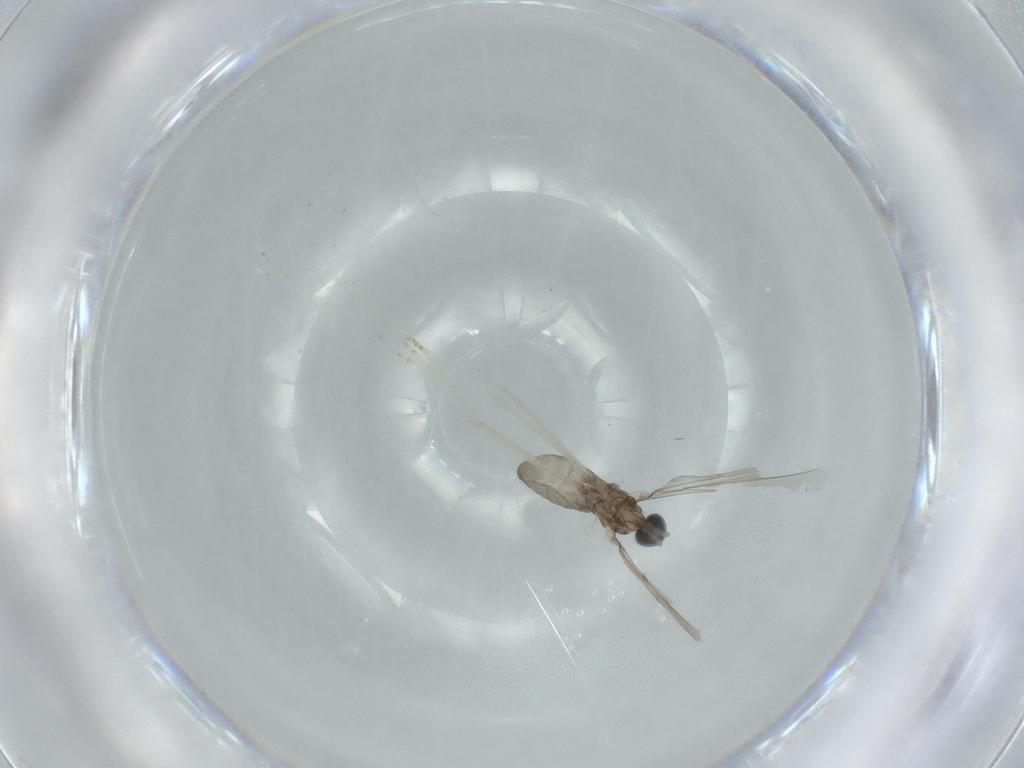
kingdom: Animalia
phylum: Arthropoda
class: Insecta
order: Diptera
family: Cecidomyiidae
